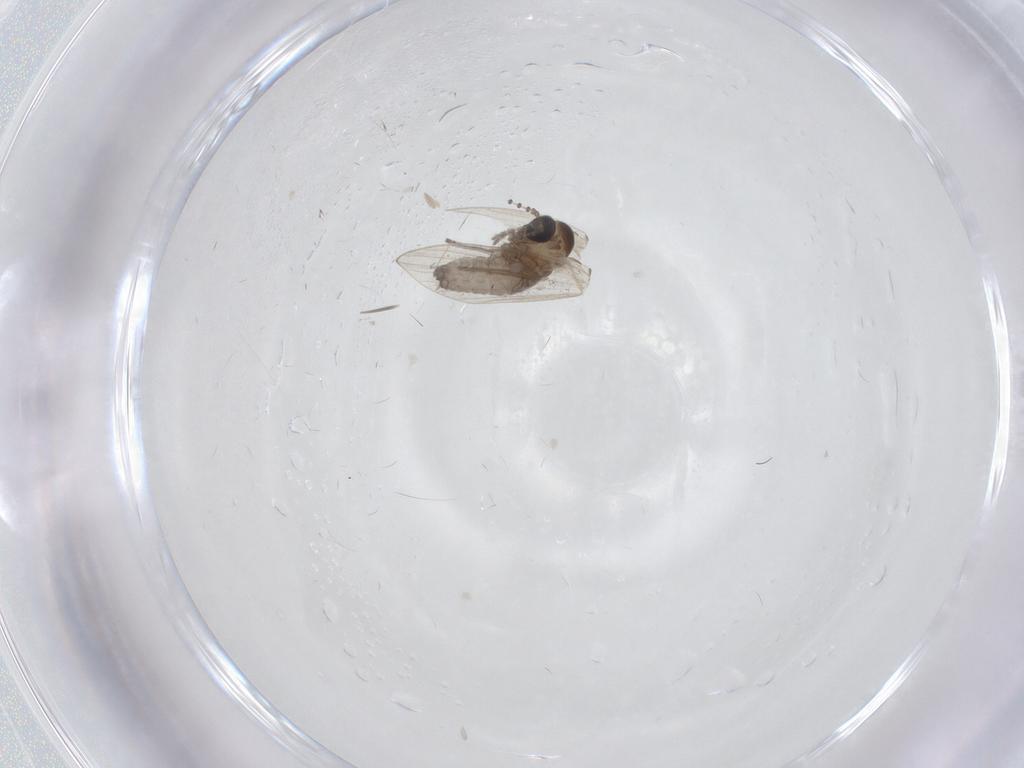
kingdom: Animalia
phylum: Arthropoda
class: Insecta
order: Diptera
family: Psychodidae
